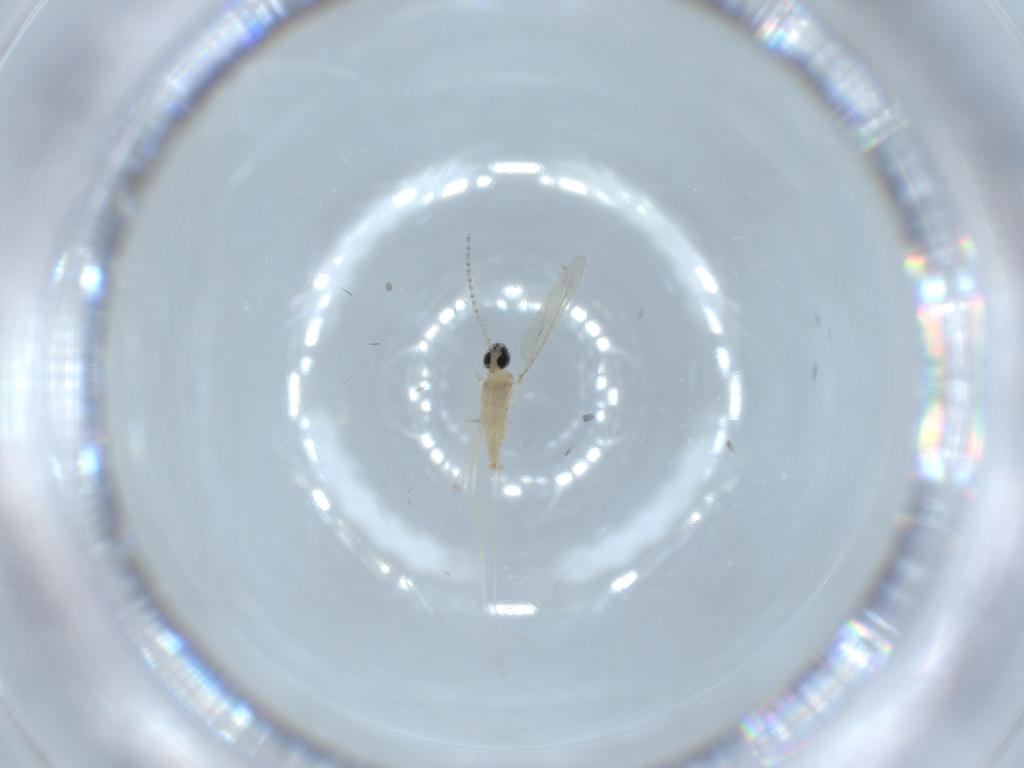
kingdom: Animalia
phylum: Arthropoda
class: Insecta
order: Diptera
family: Cecidomyiidae
